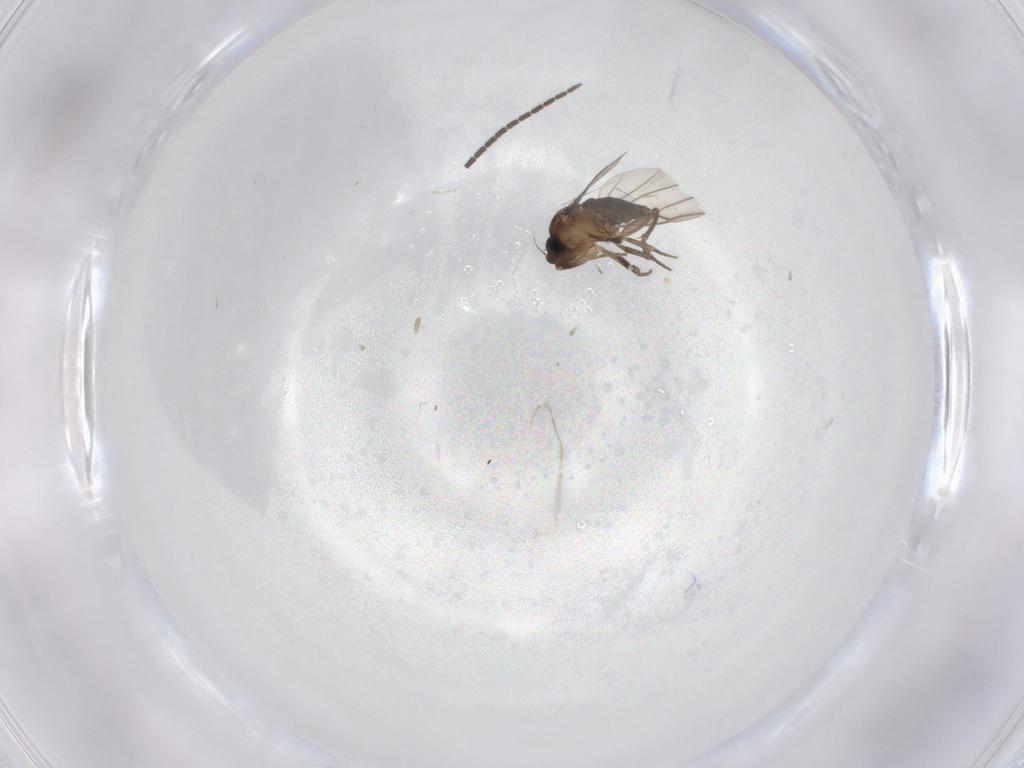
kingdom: Animalia
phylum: Arthropoda
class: Insecta
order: Diptera
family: Sciaridae
